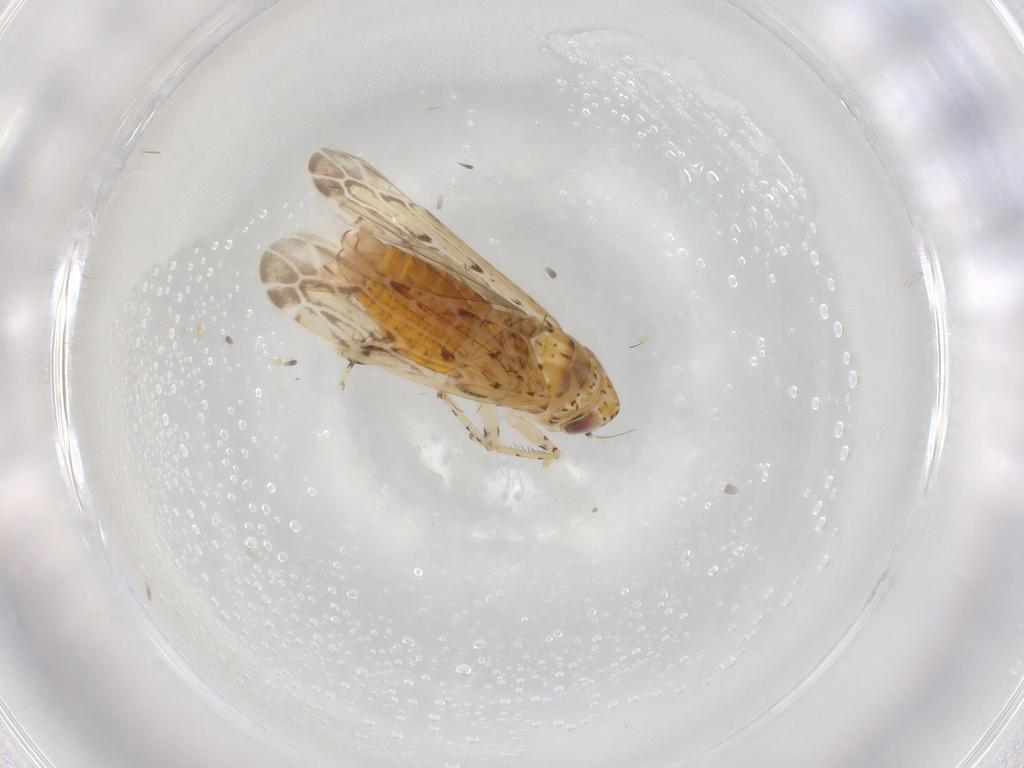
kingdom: Animalia
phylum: Arthropoda
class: Insecta
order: Hemiptera
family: Cicadellidae
